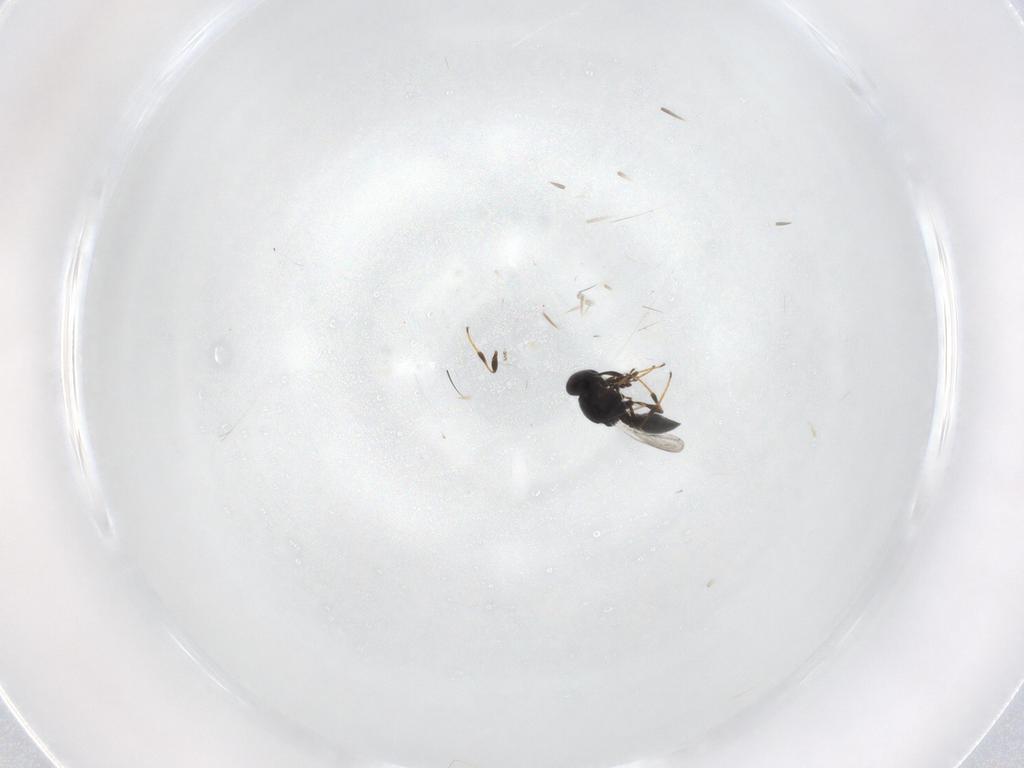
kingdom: Animalia
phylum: Arthropoda
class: Insecta
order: Hymenoptera
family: Platygastridae
